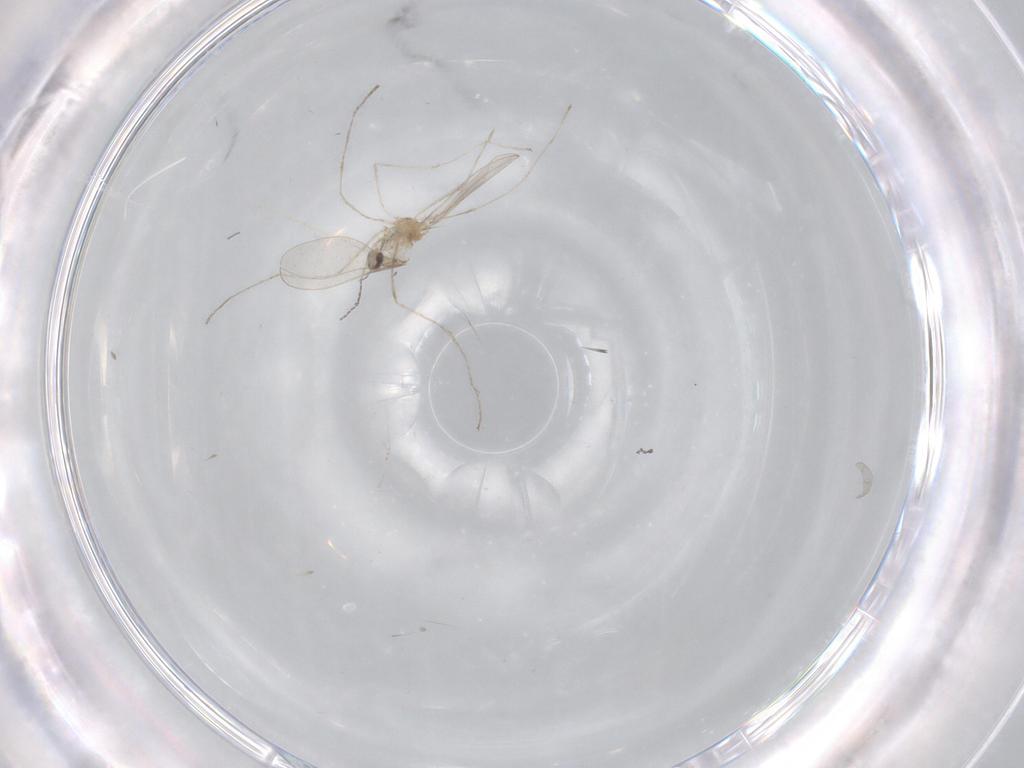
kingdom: Animalia
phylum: Arthropoda
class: Insecta
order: Diptera
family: Cecidomyiidae
